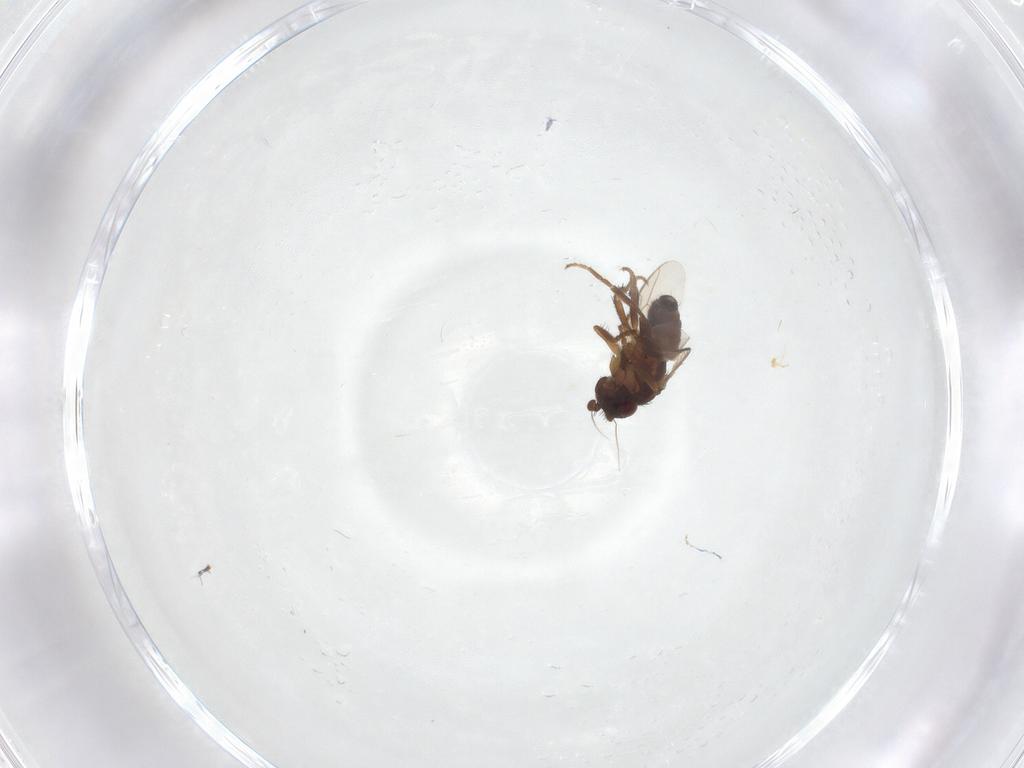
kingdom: Animalia
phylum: Arthropoda
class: Insecta
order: Diptera
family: Sphaeroceridae
